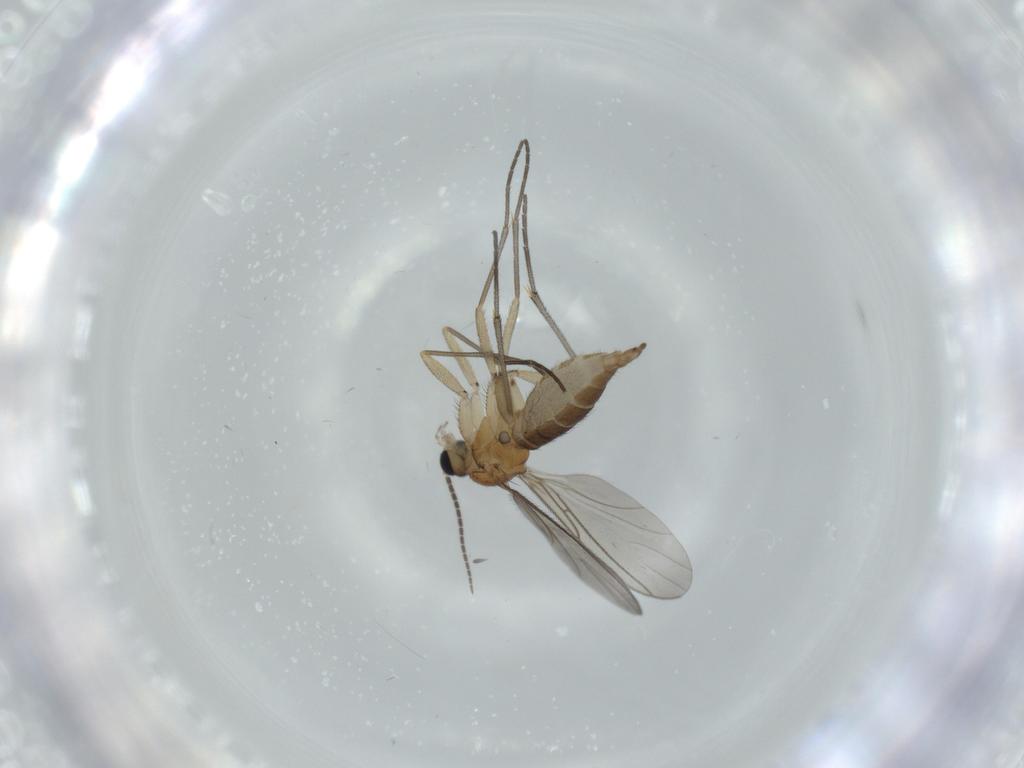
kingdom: Animalia
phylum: Arthropoda
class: Insecta
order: Diptera
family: Sciaridae
